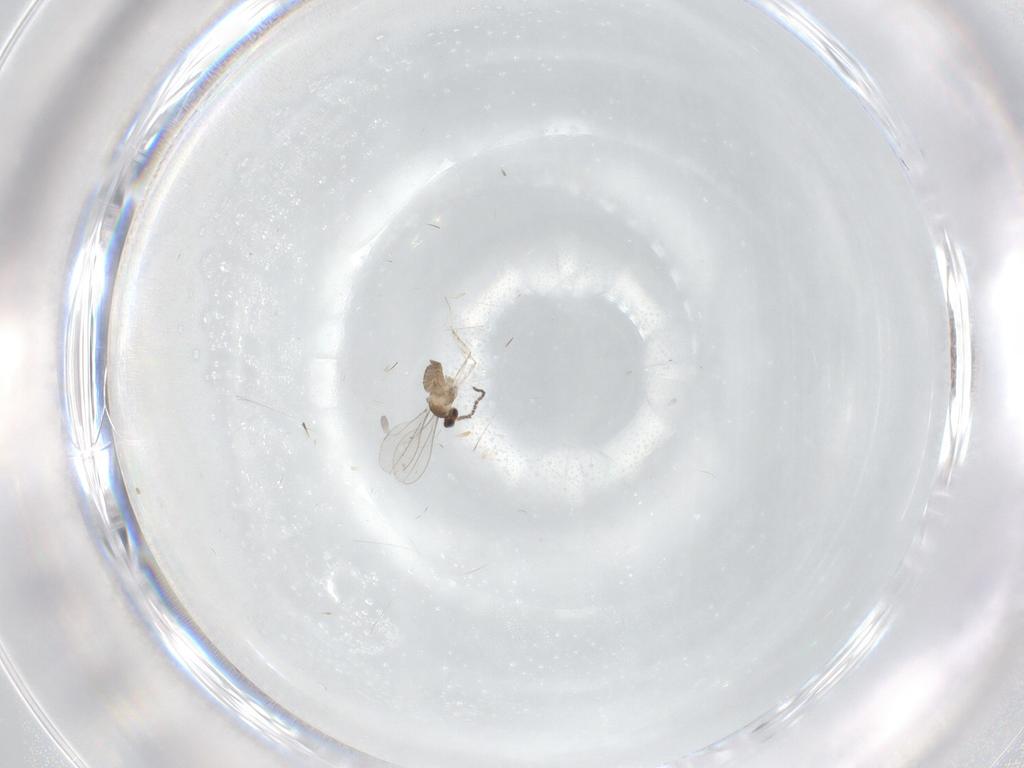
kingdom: Animalia
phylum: Arthropoda
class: Insecta
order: Diptera
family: Cecidomyiidae
